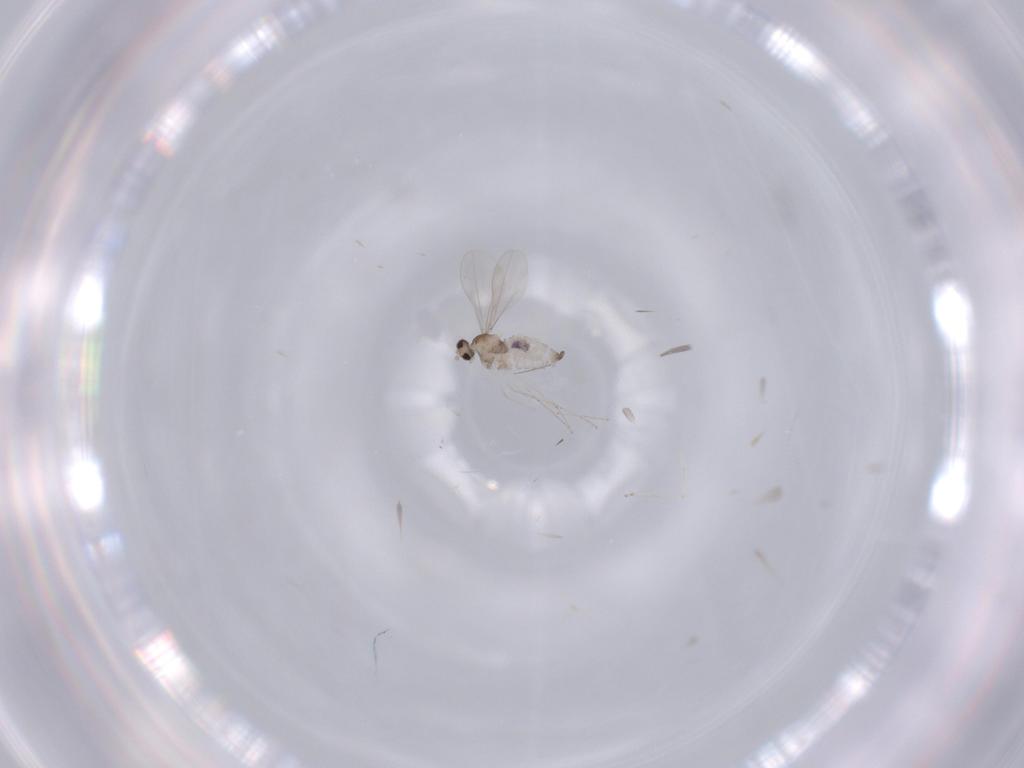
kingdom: Animalia
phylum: Arthropoda
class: Insecta
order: Diptera
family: Cecidomyiidae
